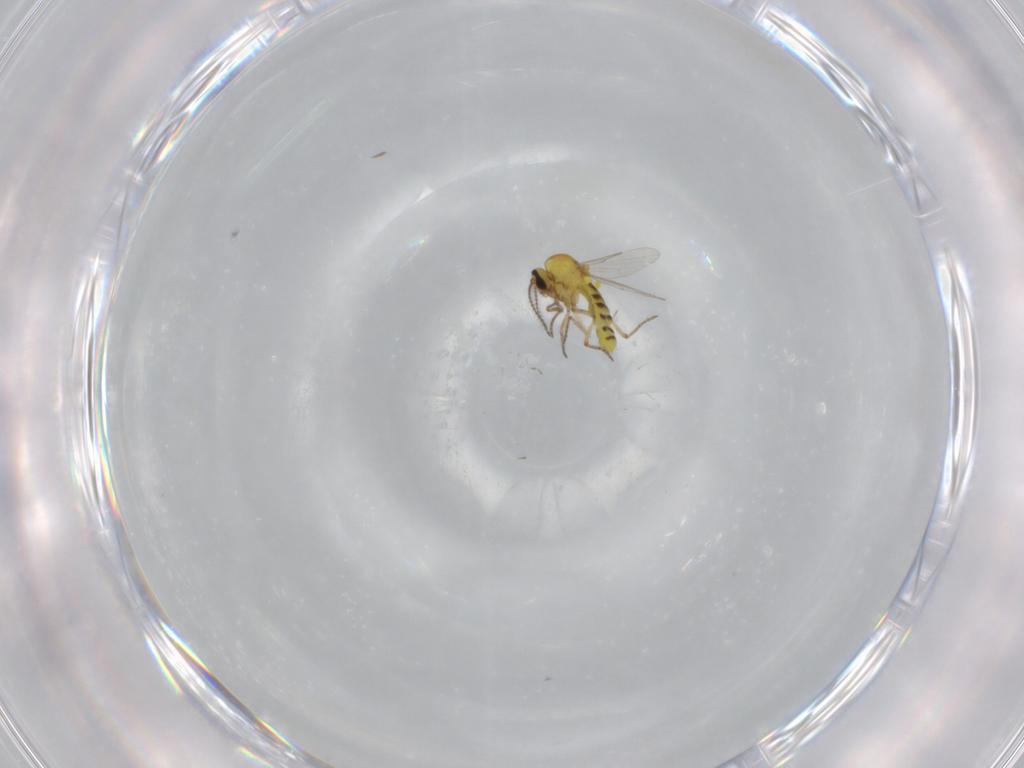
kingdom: Animalia
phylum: Arthropoda
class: Insecta
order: Diptera
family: Ceratopogonidae
